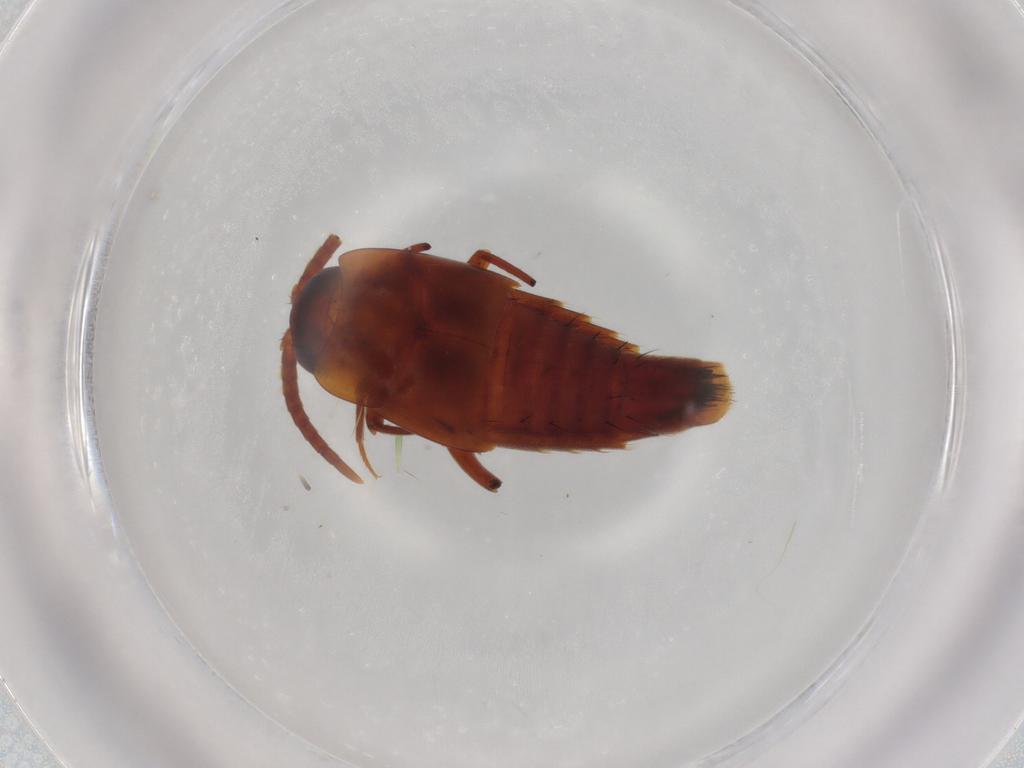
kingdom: Animalia
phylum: Arthropoda
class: Insecta
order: Coleoptera
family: Staphylinidae
